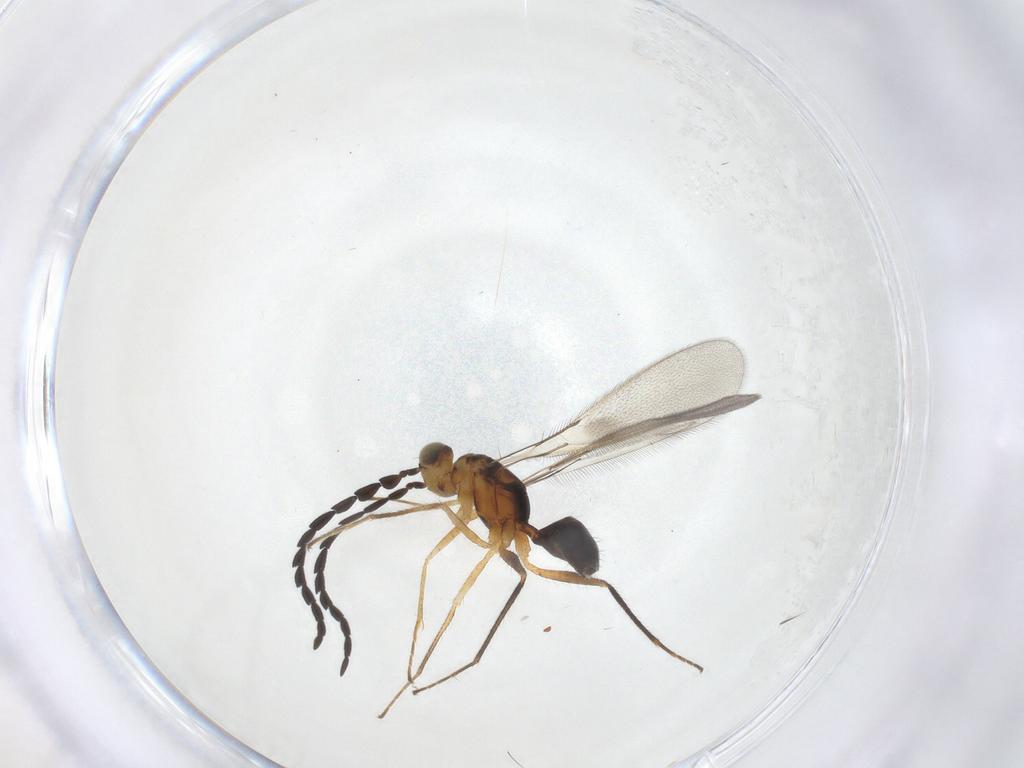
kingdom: Animalia
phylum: Arthropoda
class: Insecta
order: Hymenoptera
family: Mymaridae
